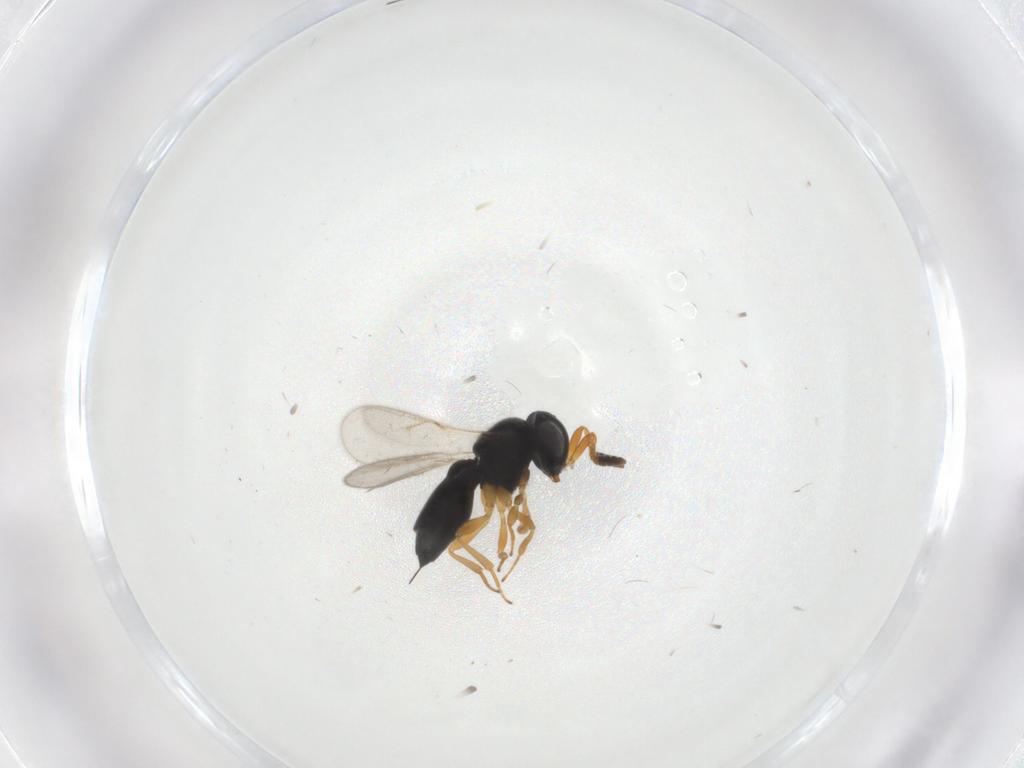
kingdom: Animalia
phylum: Arthropoda
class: Insecta
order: Hymenoptera
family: Scelionidae
